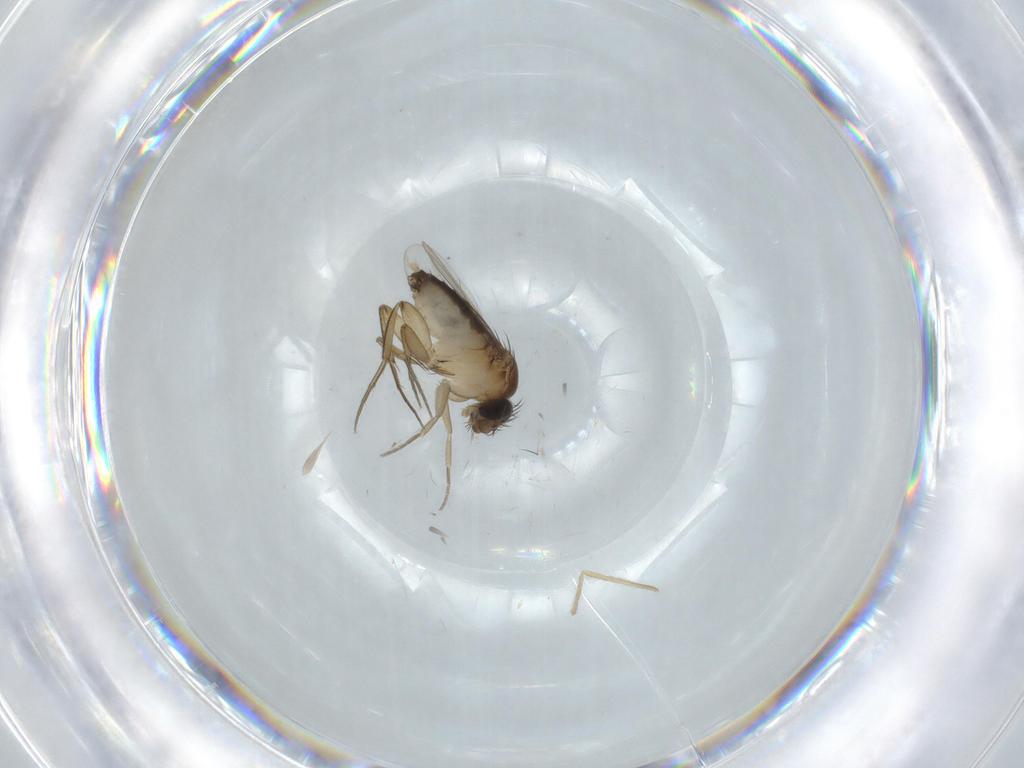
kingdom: Animalia
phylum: Arthropoda
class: Insecta
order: Diptera
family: Phoridae
